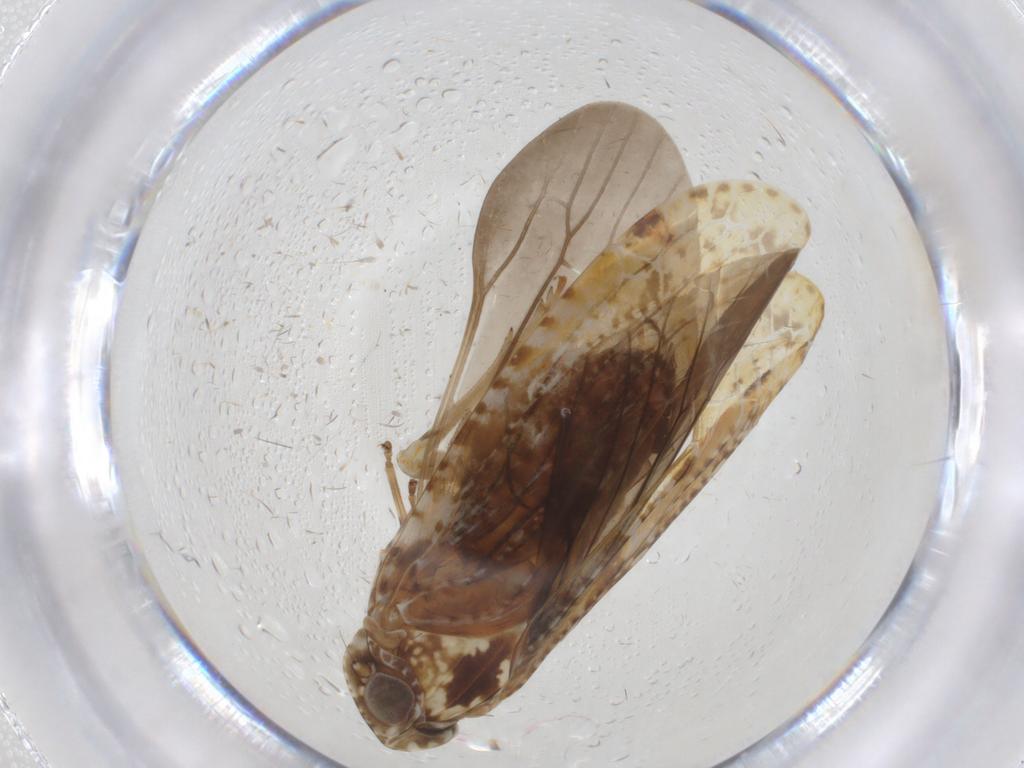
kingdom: Animalia
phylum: Arthropoda
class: Insecta
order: Hemiptera
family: Achilidae
